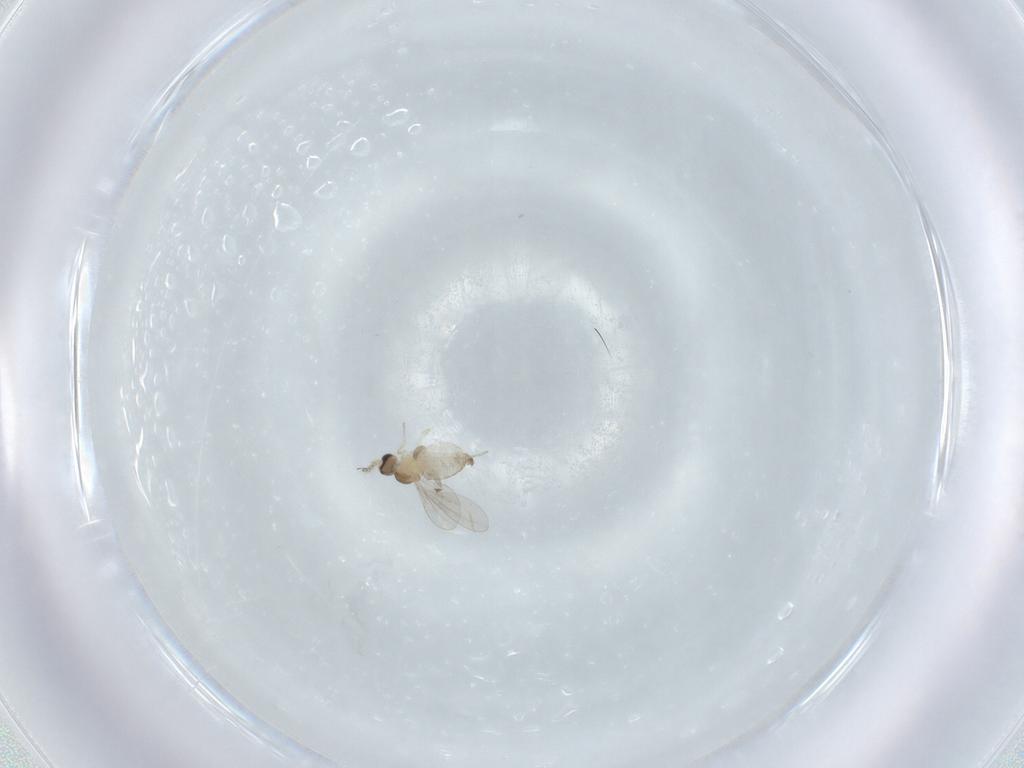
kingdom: Animalia
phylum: Arthropoda
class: Insecta
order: Diptera
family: Cecidomyiidae
